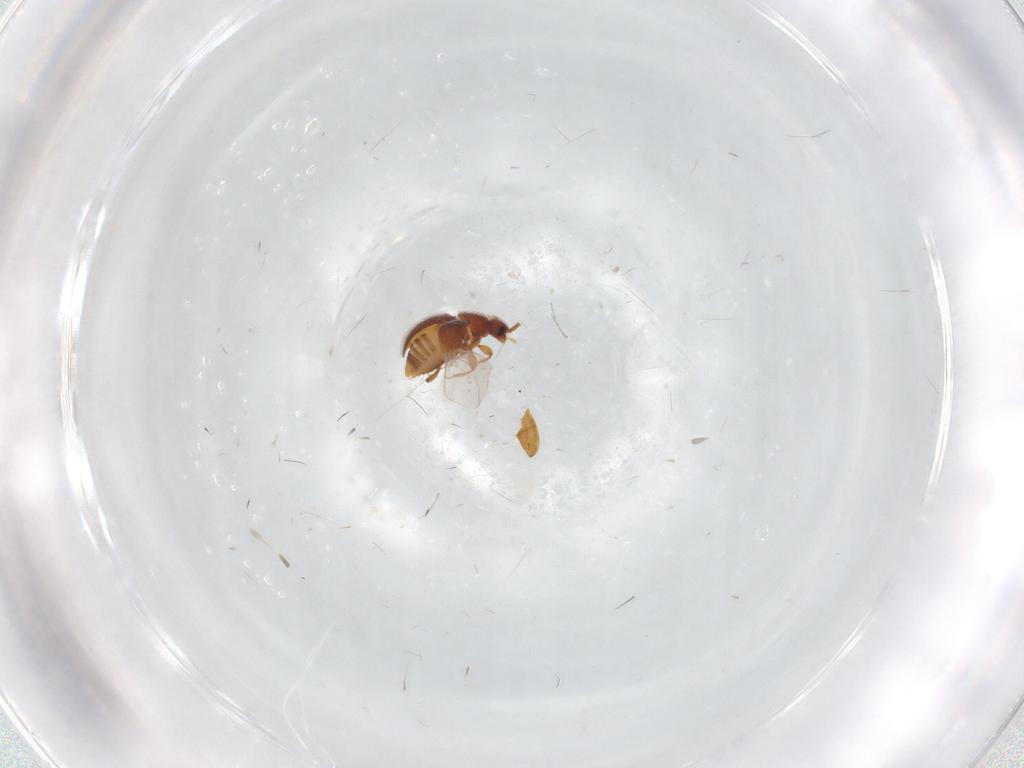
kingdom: Animalia
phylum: Arthropoda
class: Insecta
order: Coleoptera
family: Staphylinidae
